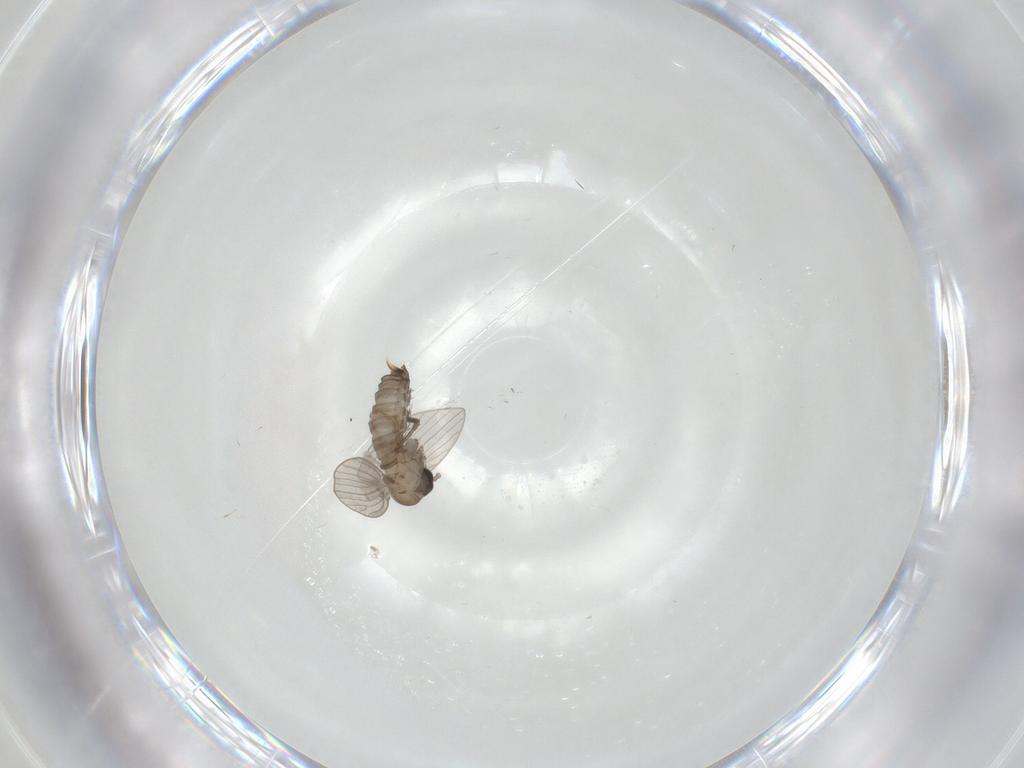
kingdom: Animalia
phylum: Arthropoda
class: Insecta
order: Diptera
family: Psychodidae
